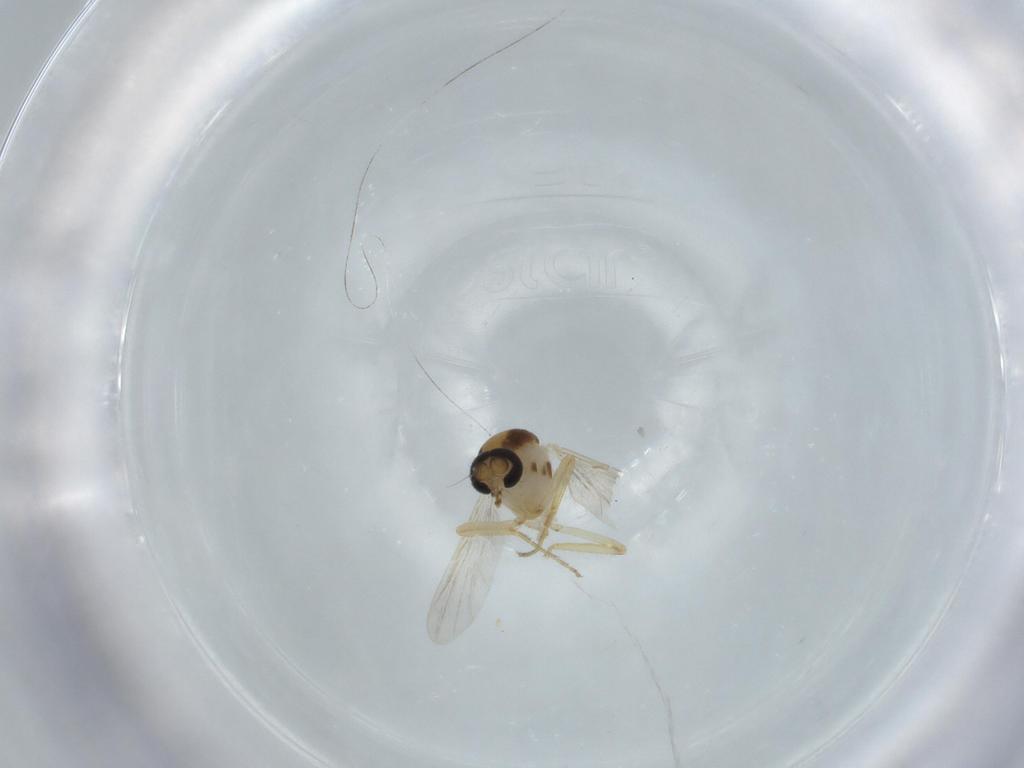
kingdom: Animalia
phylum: Arthropoda
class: Insecta
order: Diptera
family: Ceratopogonidae
